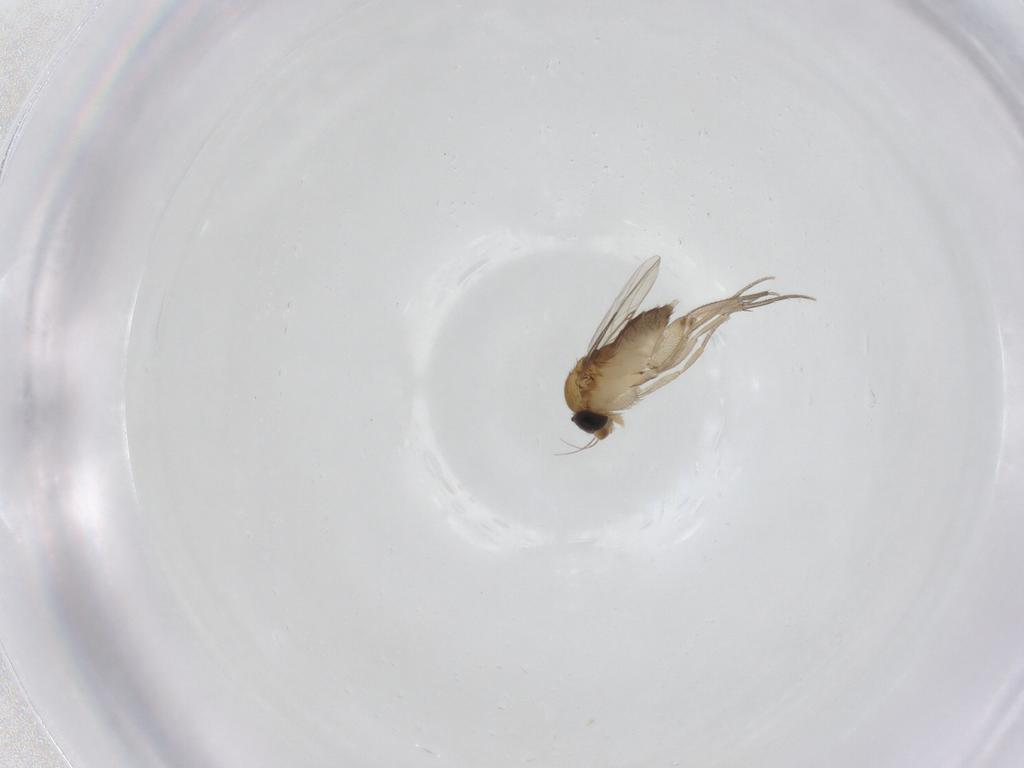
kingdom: Animalia
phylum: Arthropoda
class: Insecta
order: Diptera
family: Phoridae
